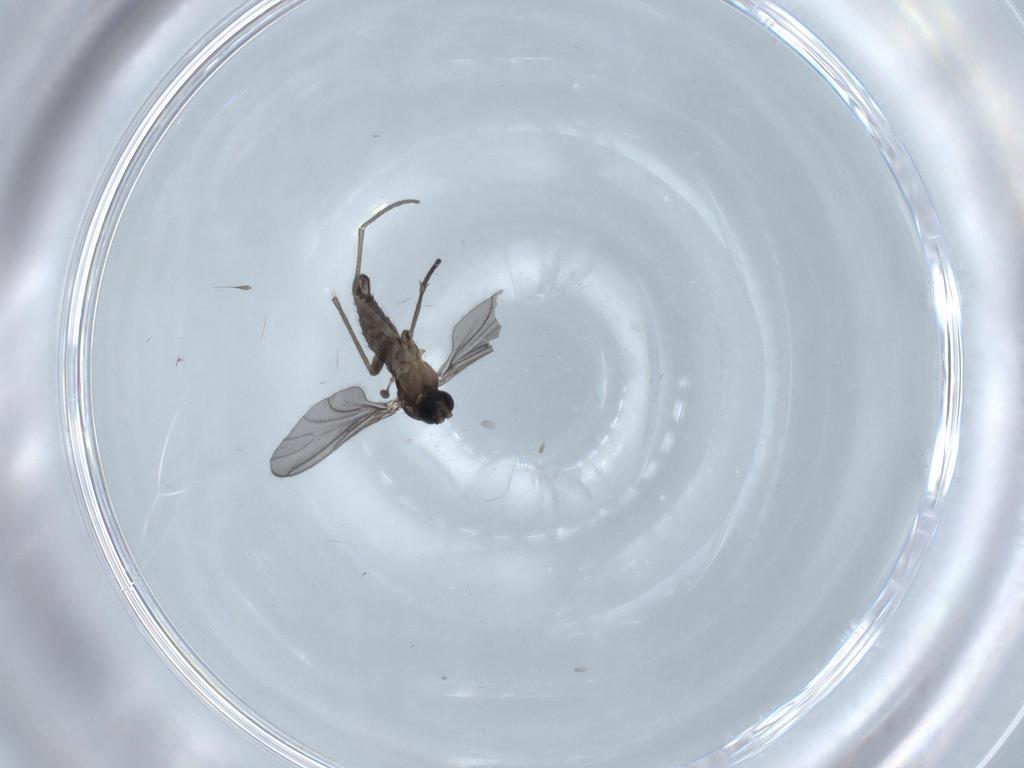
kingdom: Animalia
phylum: Arthropoda
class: Insecta
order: Diptera
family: Sciaridae
